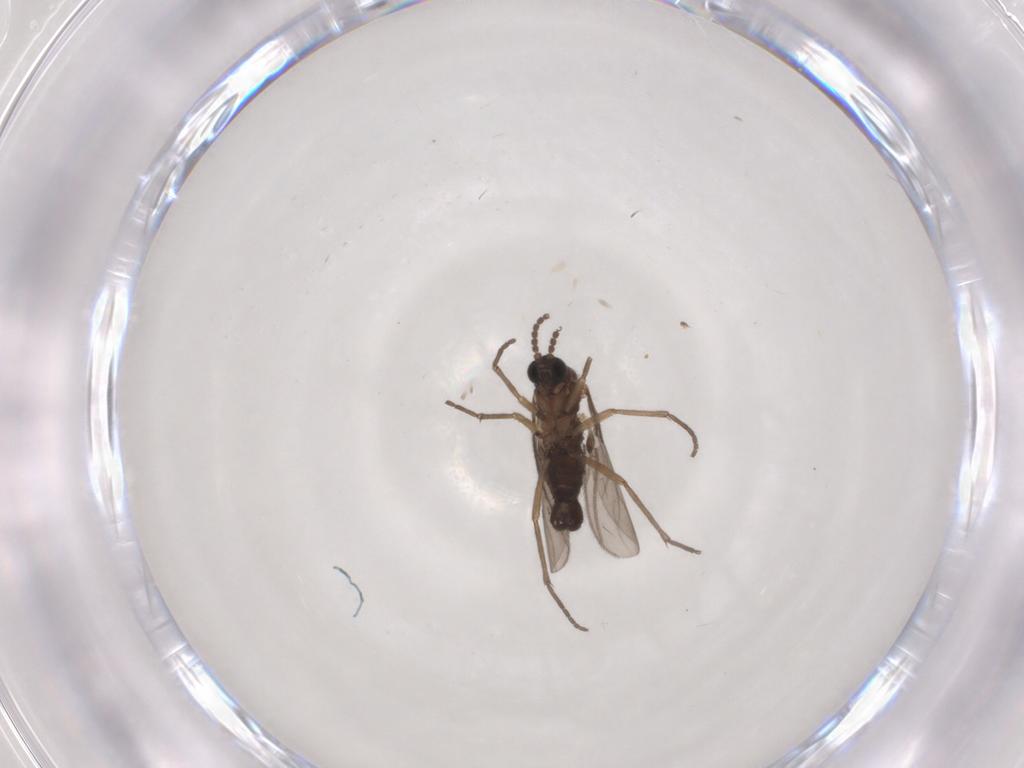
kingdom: Animalia
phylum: Arthropoda
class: Insecta
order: Diptera
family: Sciaridae
